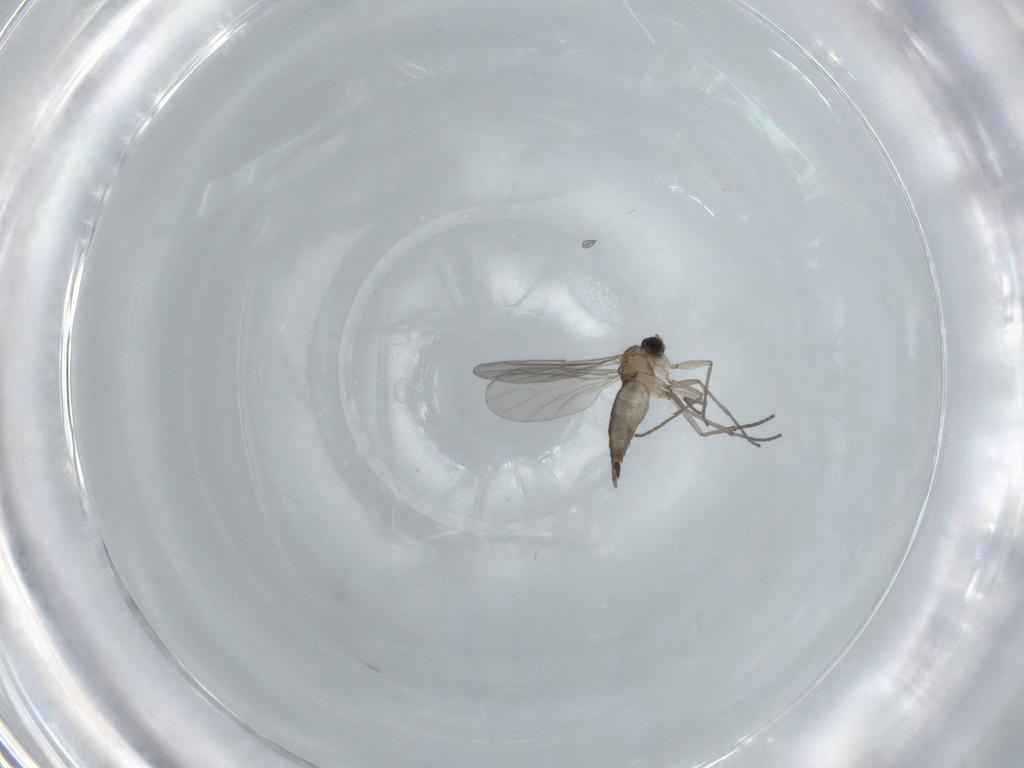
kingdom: Animalia
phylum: Arthropoda
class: Insecta
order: Diptera
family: Sciaridae
